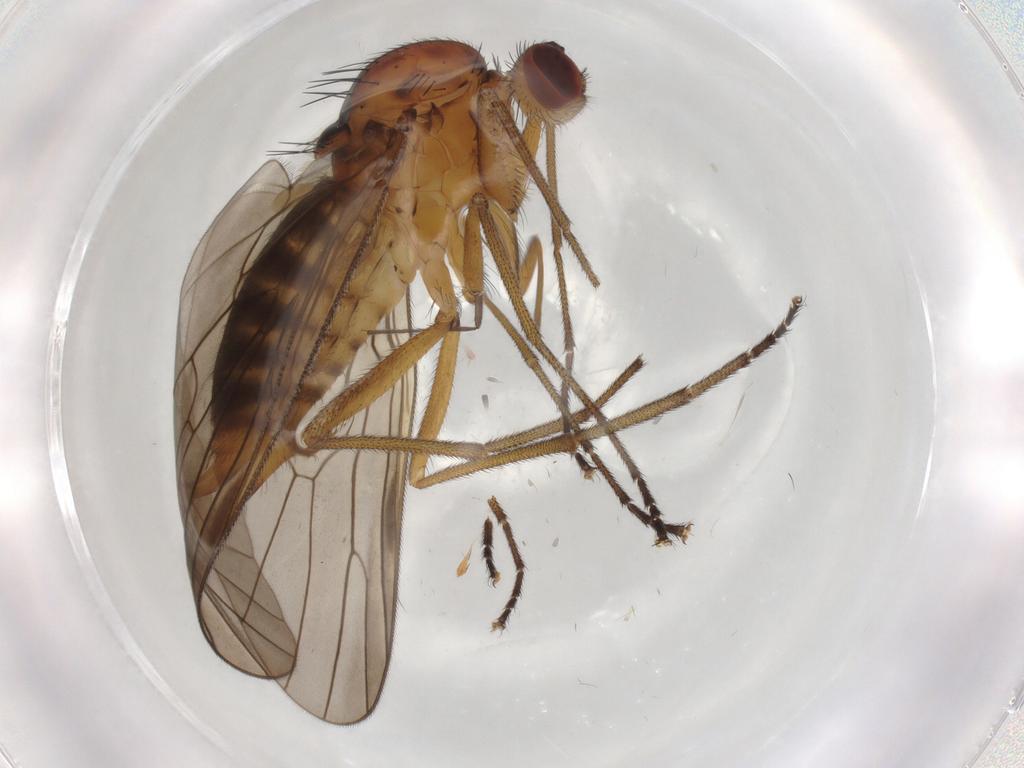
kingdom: Animalia
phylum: Arthropoda
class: Insecta
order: Diptera
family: Brachystomatidae
